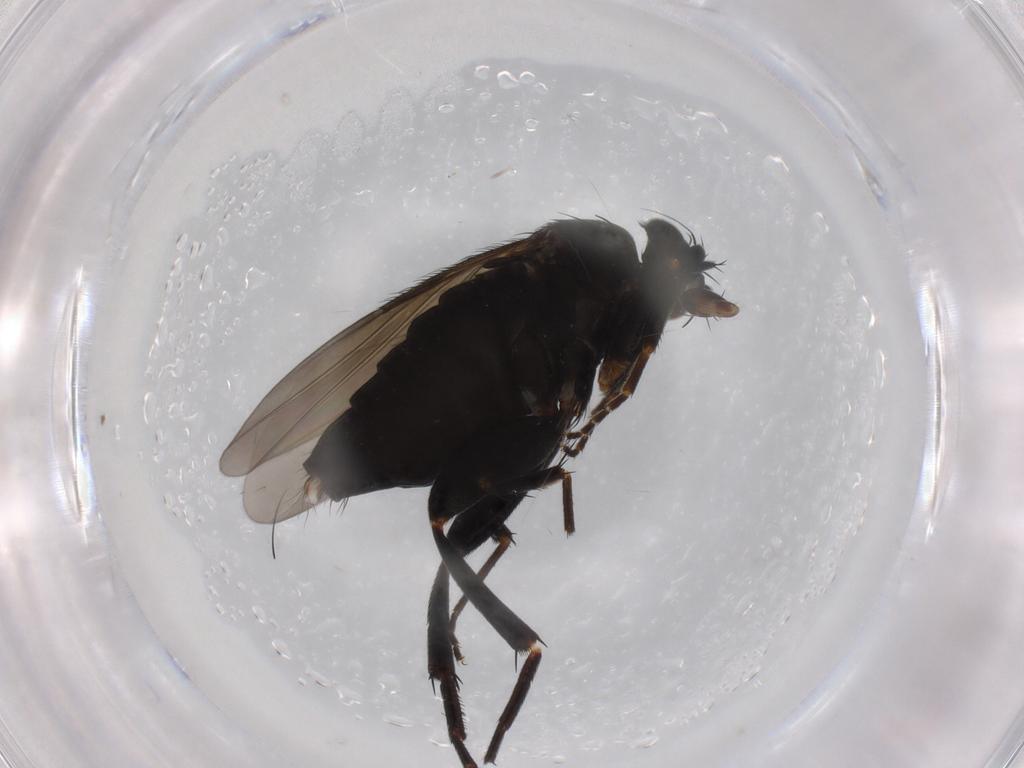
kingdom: Animalia
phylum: Arthropoda
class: Insecta
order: Diptera
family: Phoridae
